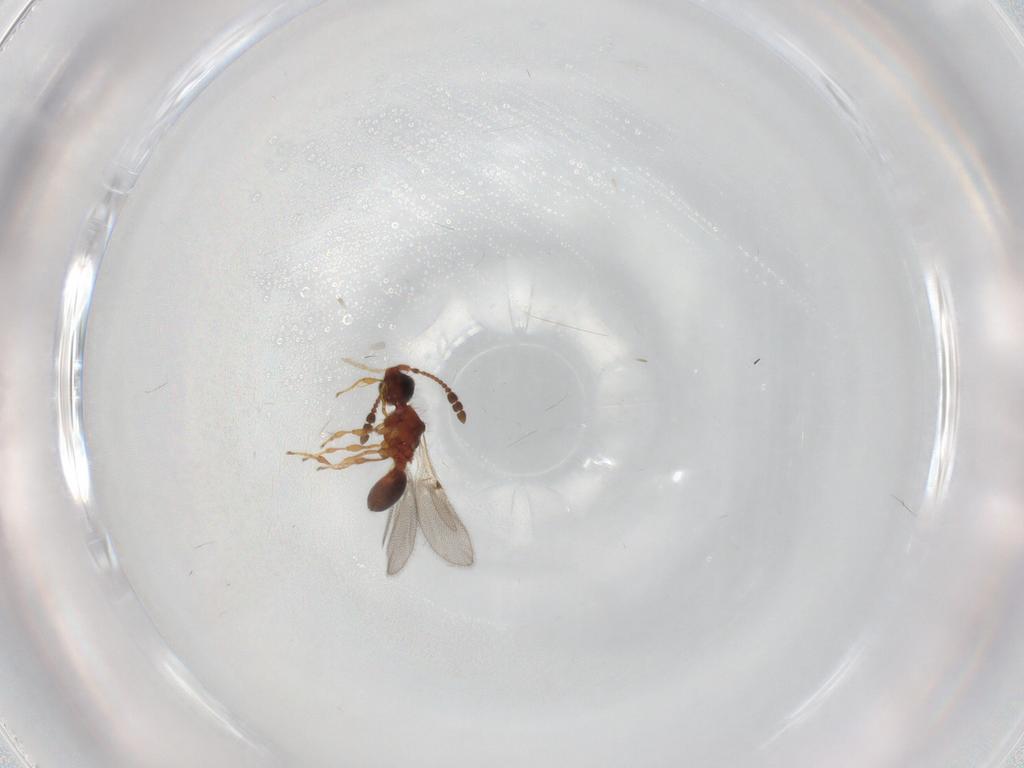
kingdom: Animalia
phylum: Arthropoda
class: Insecta
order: Hymenoptera
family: Diapriidae
